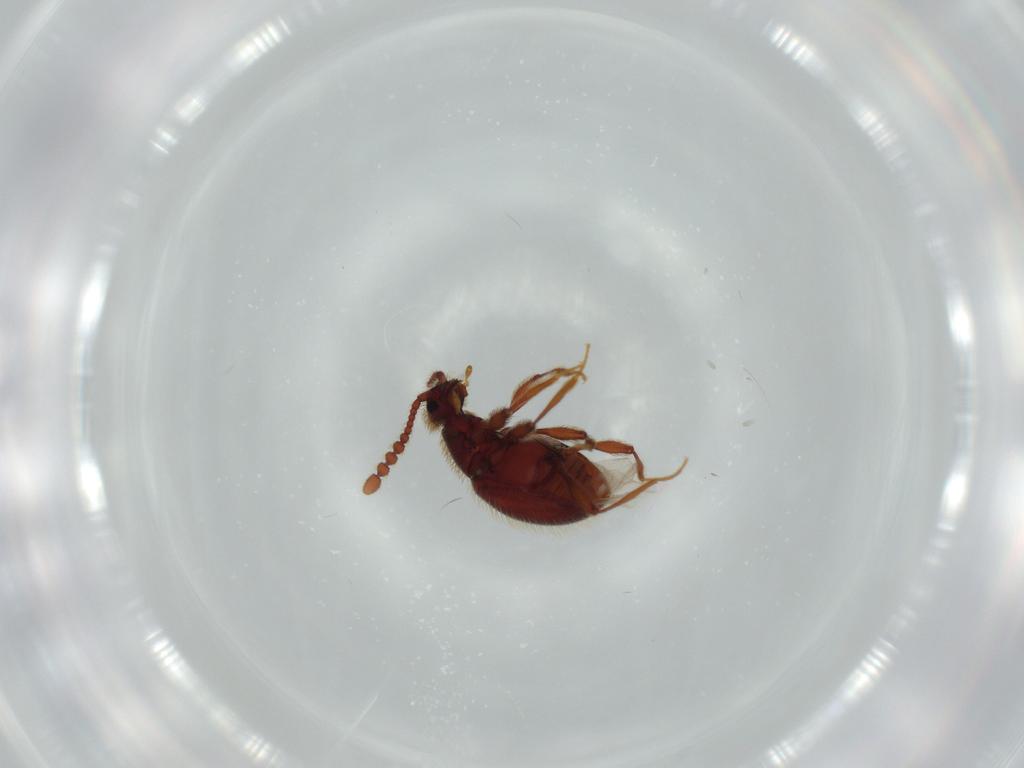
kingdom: Animalia
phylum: Arthropoda
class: Insecta
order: Coleoptera
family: Staphylinidae
